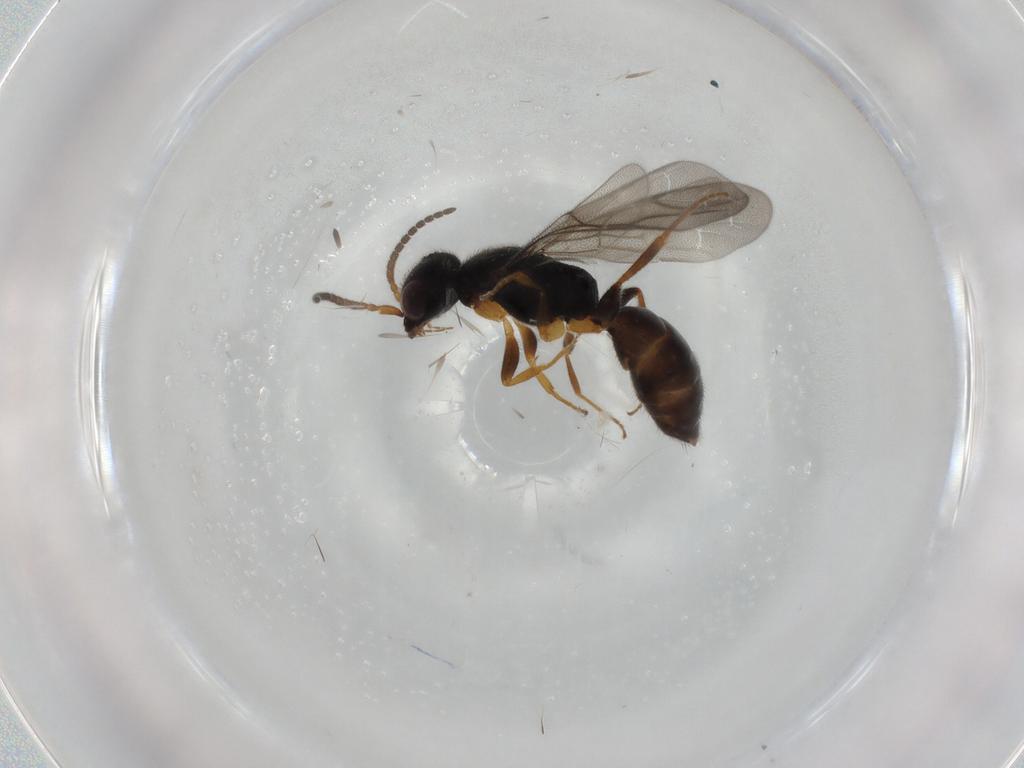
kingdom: Animalia
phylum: Arthropoda
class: Insecta
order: Hymenoptera
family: Bethylidae
